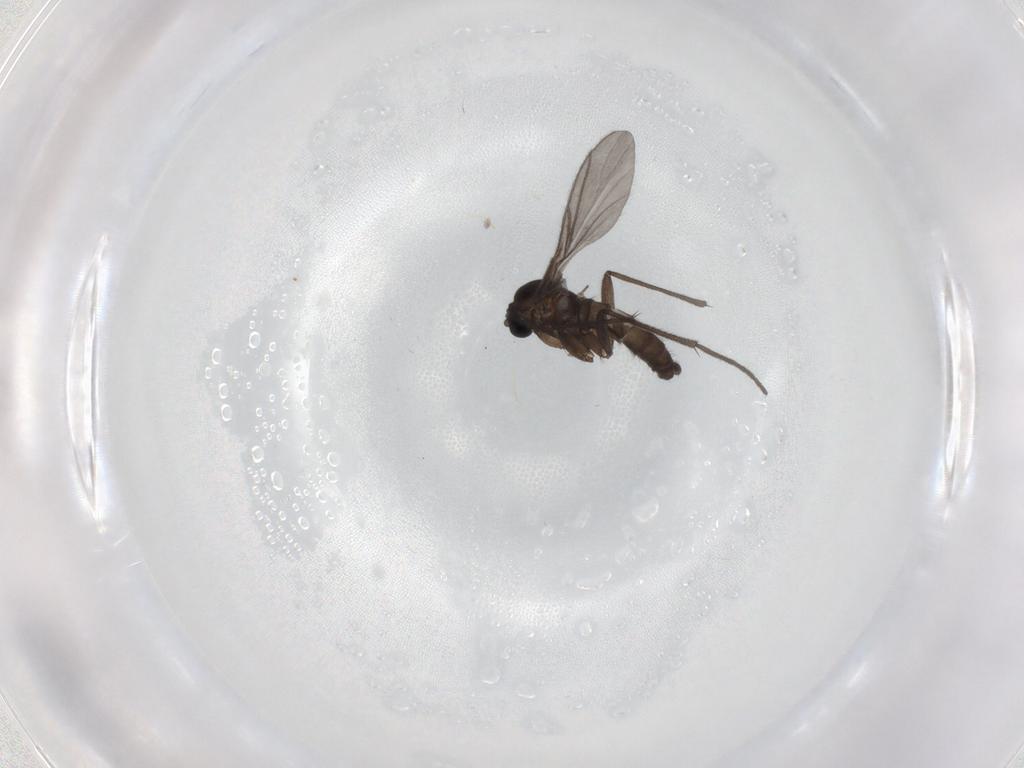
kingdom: Animalia
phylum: Arthropoda
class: Insecta
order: Diptera
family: Sciaridae
